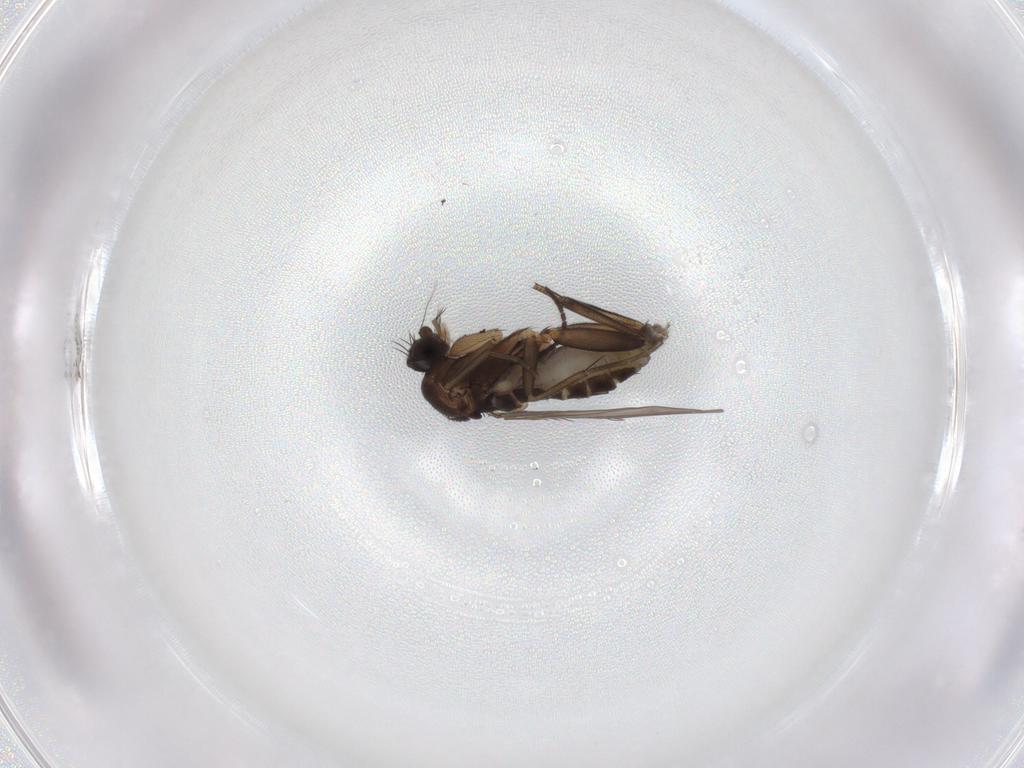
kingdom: Animalia
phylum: Arthropoda
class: Insecta
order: Diptera
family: Phoridae
